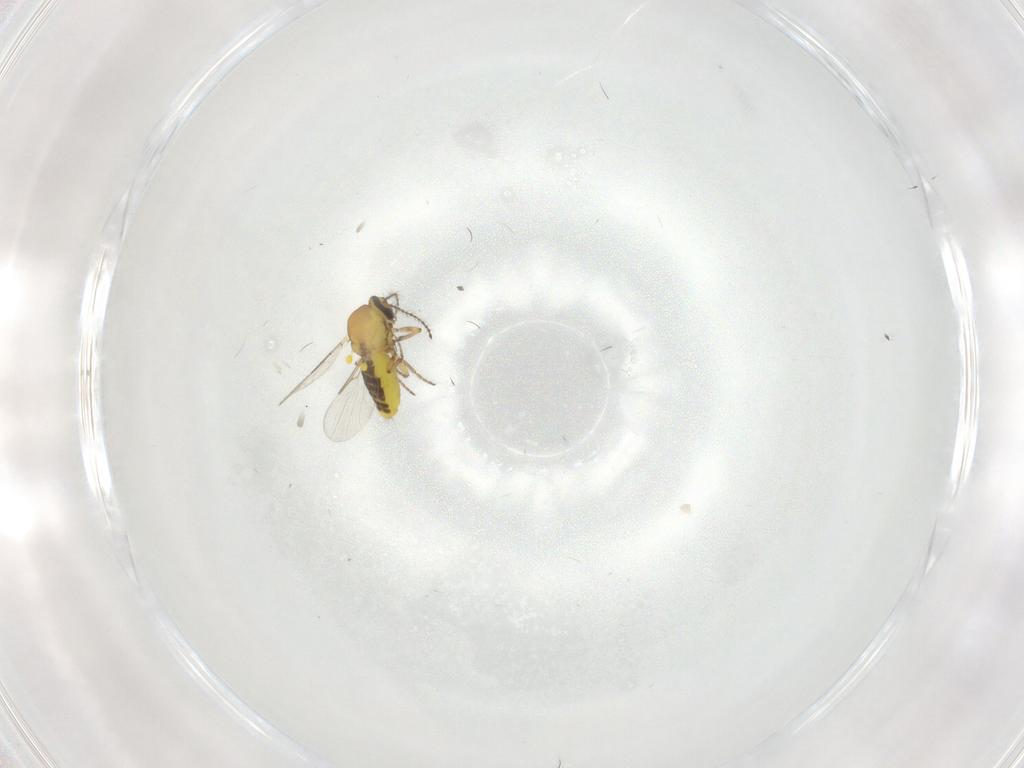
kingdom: Animalia
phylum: Arthropoda
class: Insecta
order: Diptera
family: Ceratopogonidae
